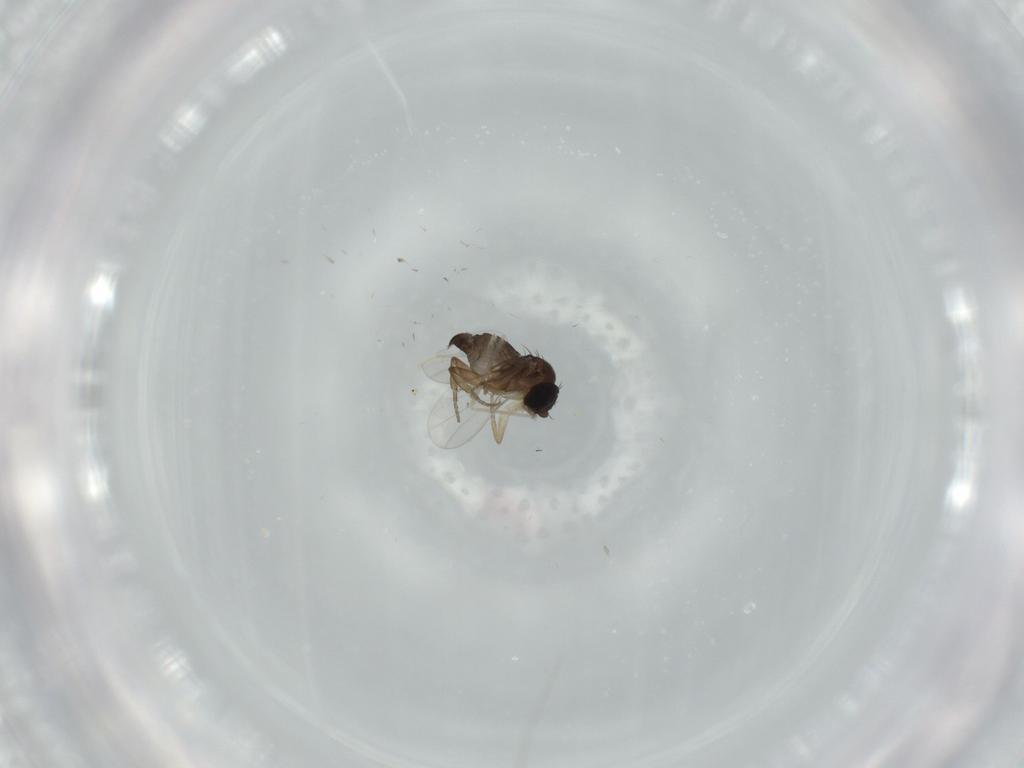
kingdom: Animalia
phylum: Arthropoda
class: Insecta
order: Diptera
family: Cecidomyiidae
